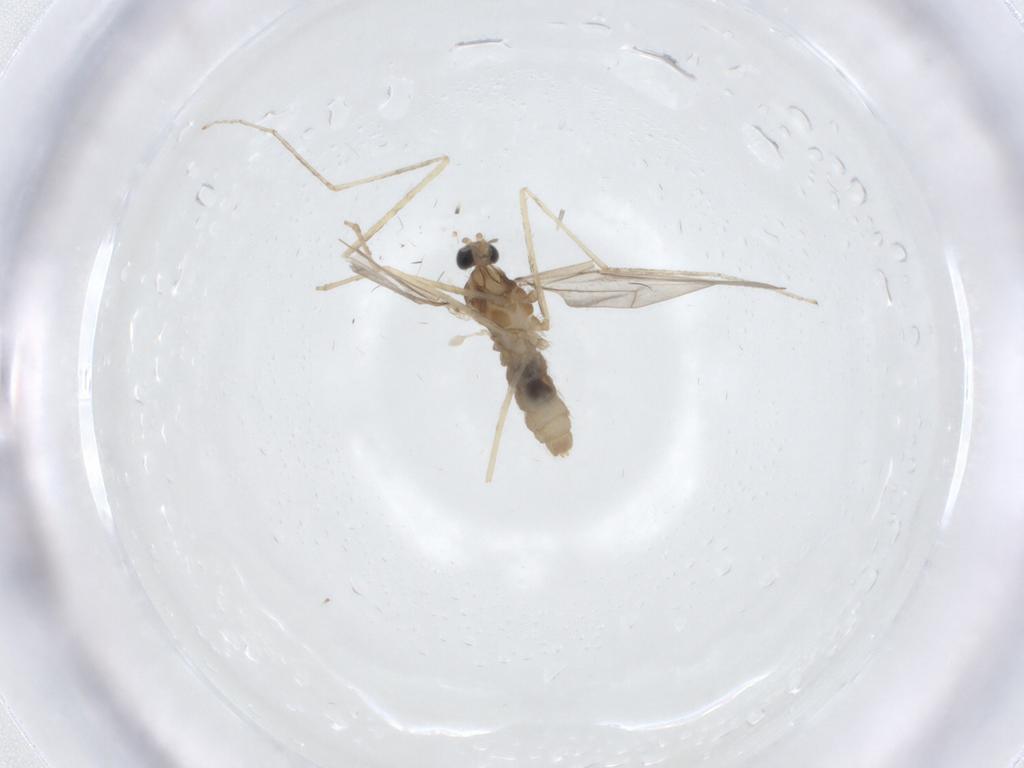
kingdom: Animalia
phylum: Arthropoda
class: Insecta
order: Diptera
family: Cecidomyiidae
